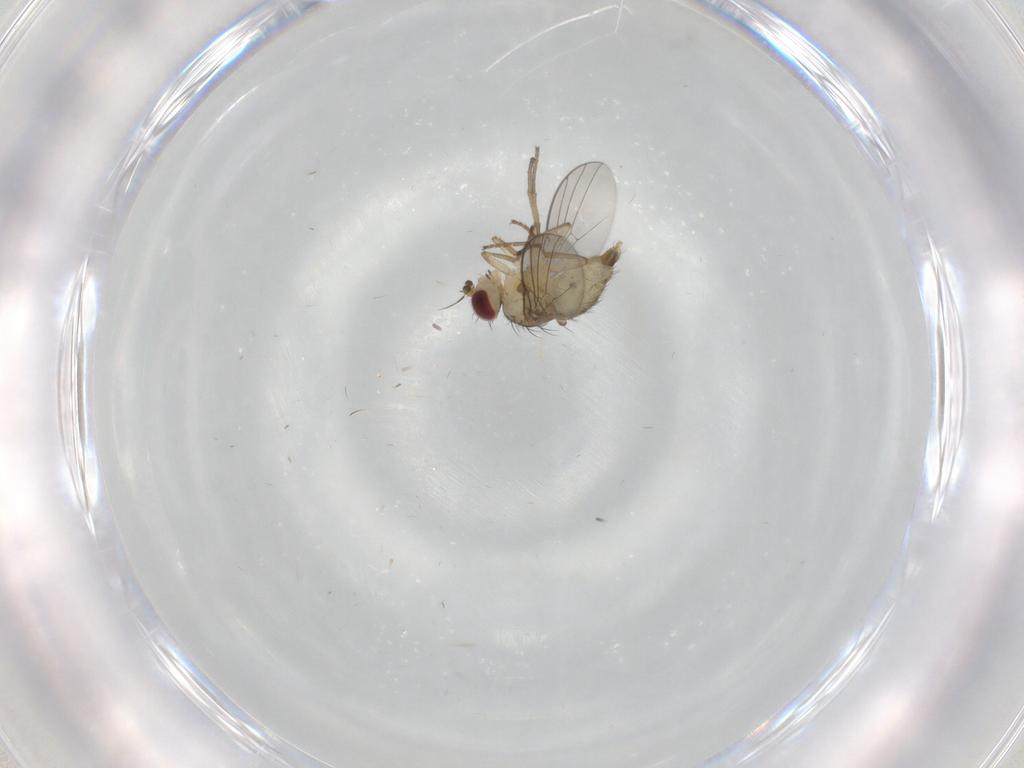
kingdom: Animalia
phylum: Arthropoda
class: Insecta
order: Diptera
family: Agromyzidae
